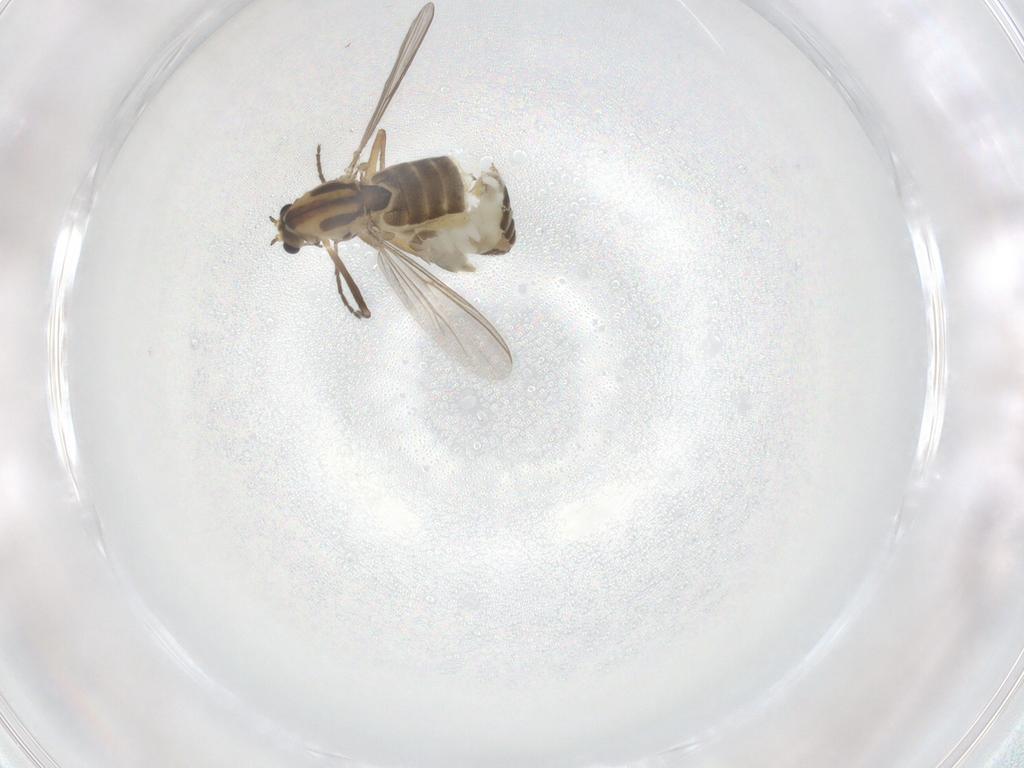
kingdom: Animalia
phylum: Arthropoda
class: Insecta
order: Diptera
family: Chironomidae
